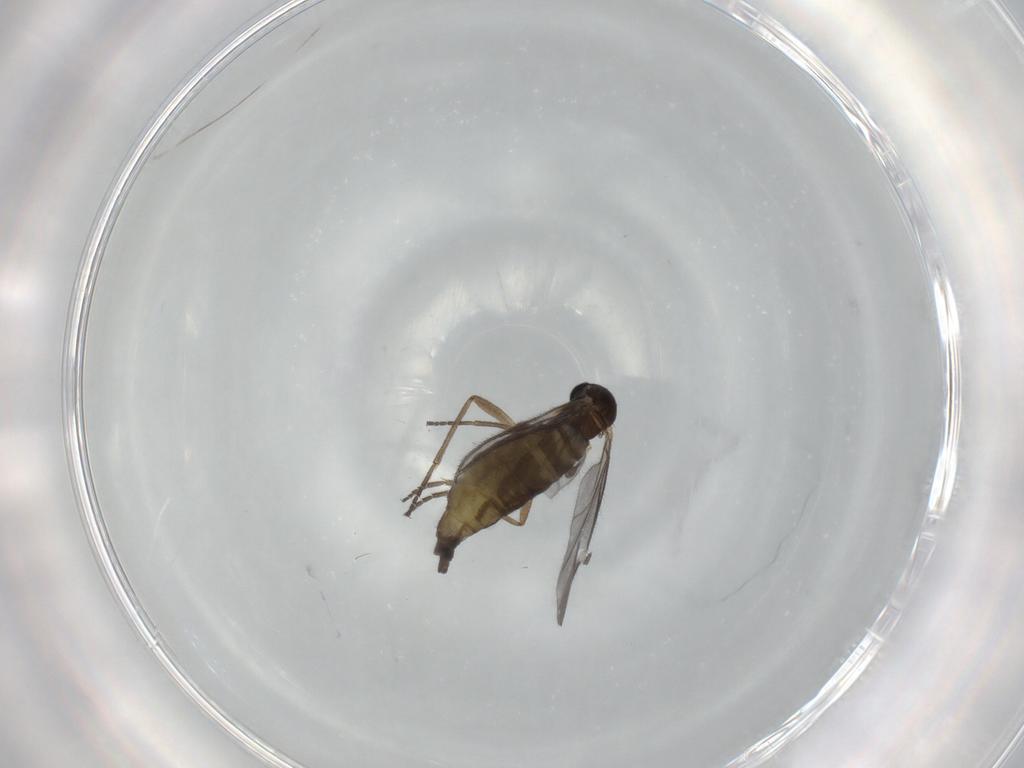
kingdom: Animalia
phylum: Arthropoda
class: Insecta
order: Diptera
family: Sciaridae
